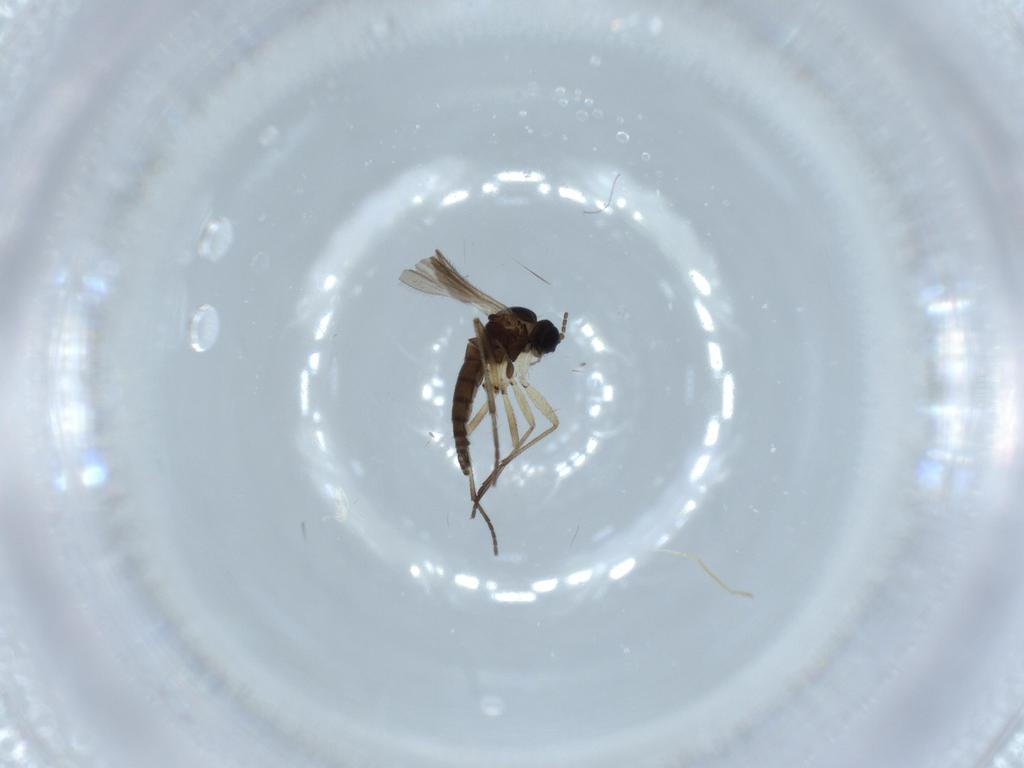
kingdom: Animalia
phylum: Arthropoda
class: Insecta
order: Diptera
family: Sciaridae
